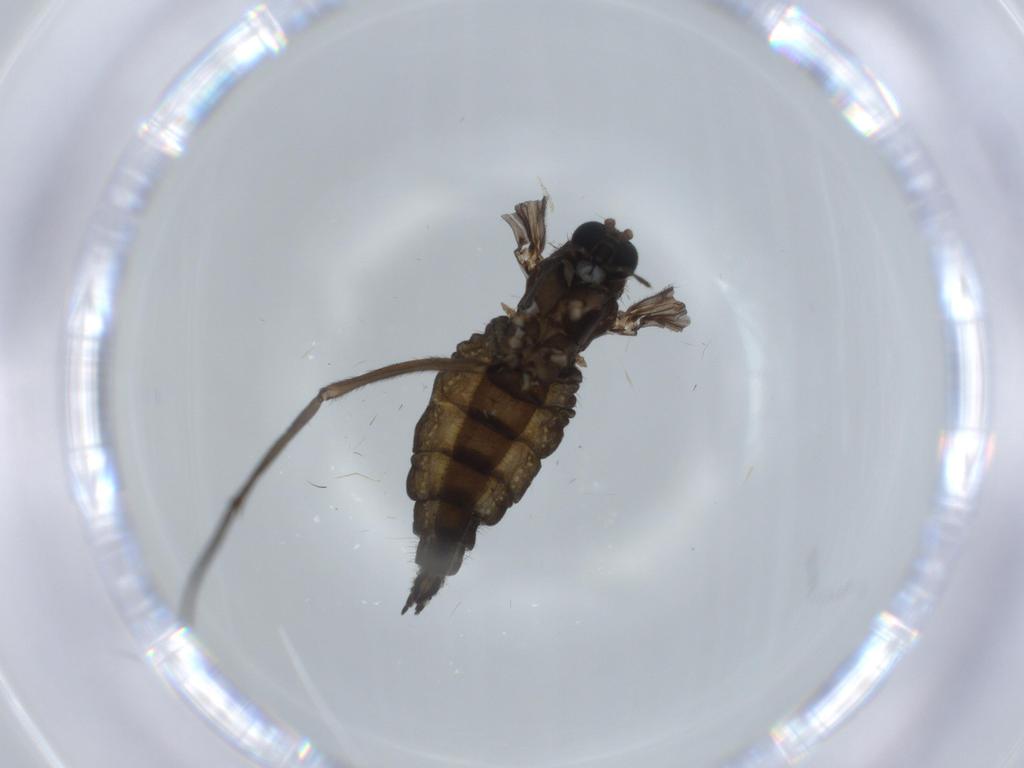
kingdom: Animalia
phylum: Arthropoda
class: Insecta
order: Diptera
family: Sciaridae
